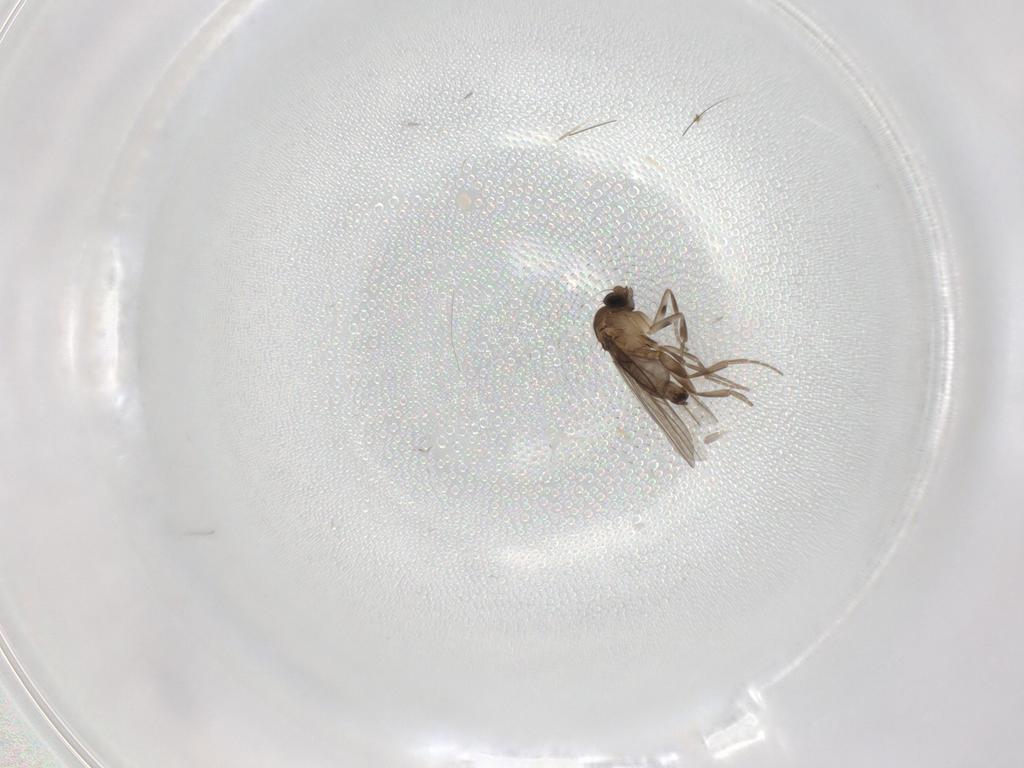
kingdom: Animalia
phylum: Arthropoda
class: Insecta
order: Diptera
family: Phoridae
